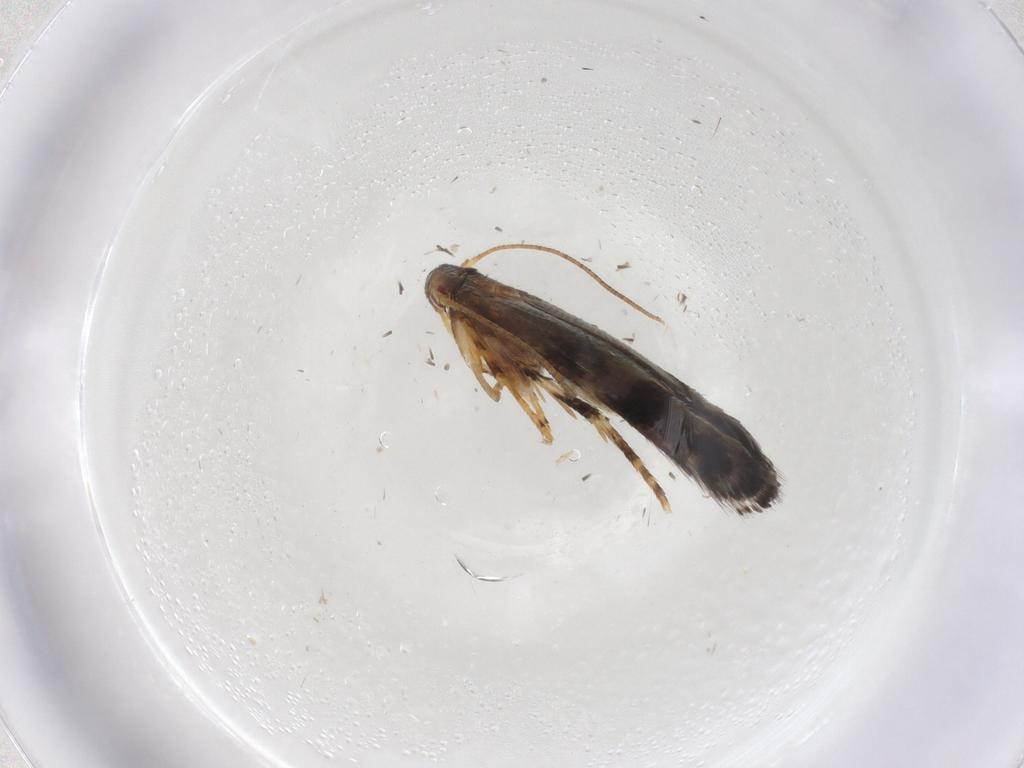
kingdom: Animalia
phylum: Arthropoda
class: Insecta
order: Lepidoptera
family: Momphidae
